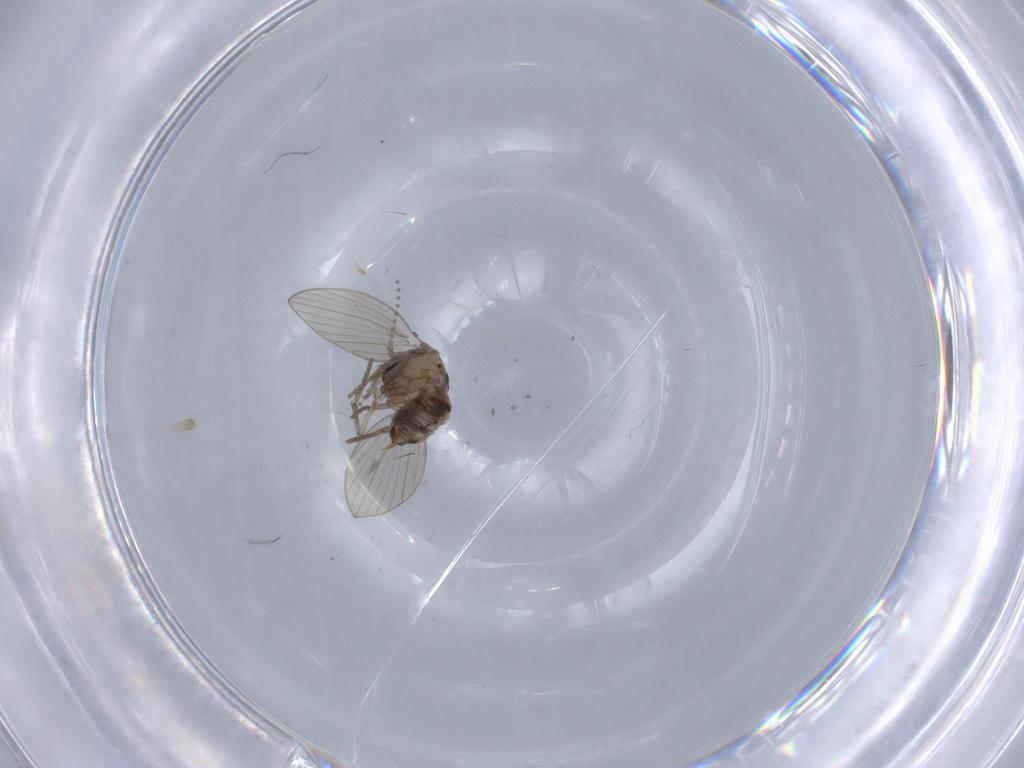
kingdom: Animalia
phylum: Arthropoda
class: Insecta
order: Diptera
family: Psychodidae
